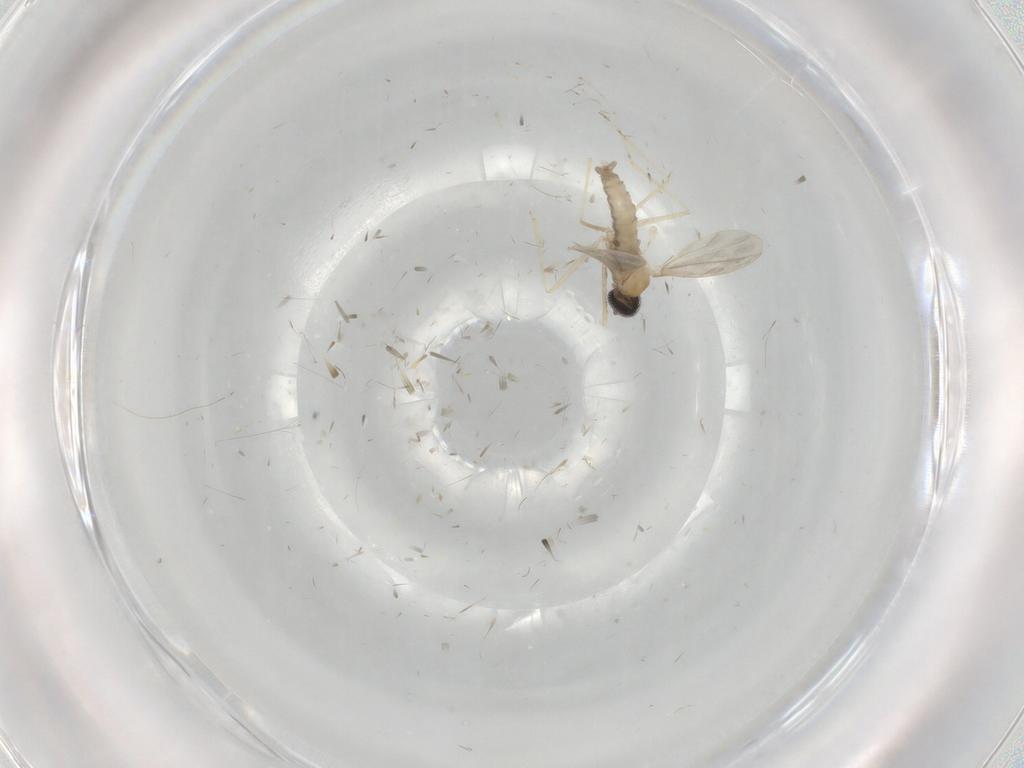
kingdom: Animalia
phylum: Arthropoda
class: Insecta
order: Diptera
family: Cecidomyiidae
